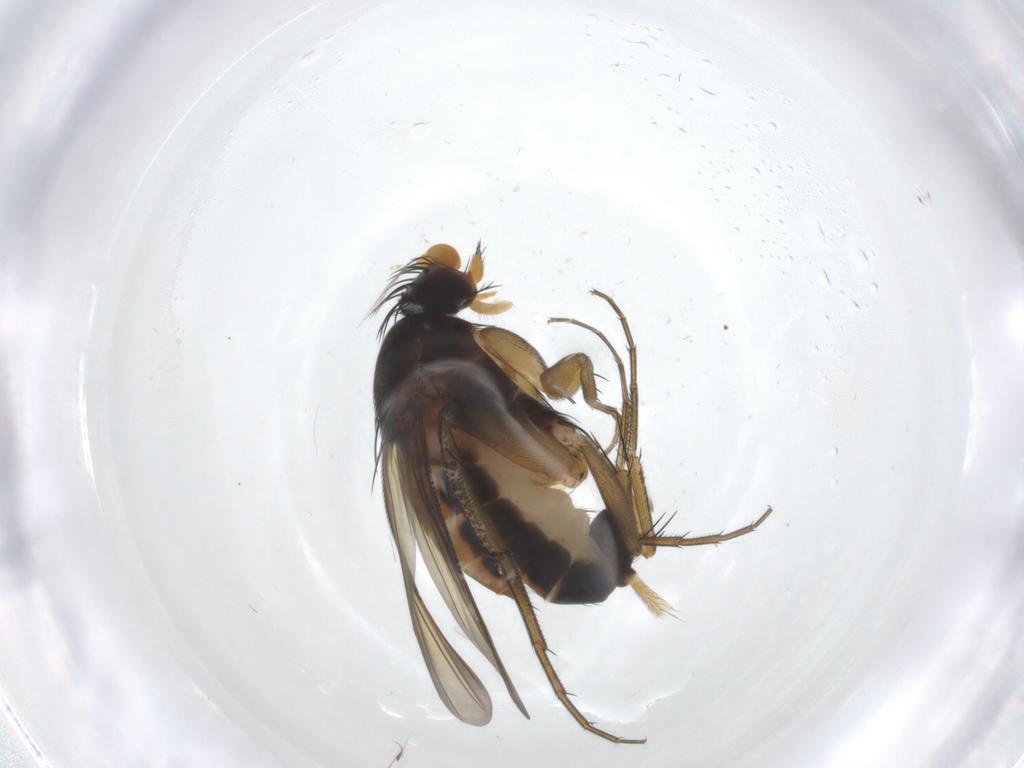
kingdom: Animalia
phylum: Arthropoda
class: Insecta
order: Diptera
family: Phoridae
